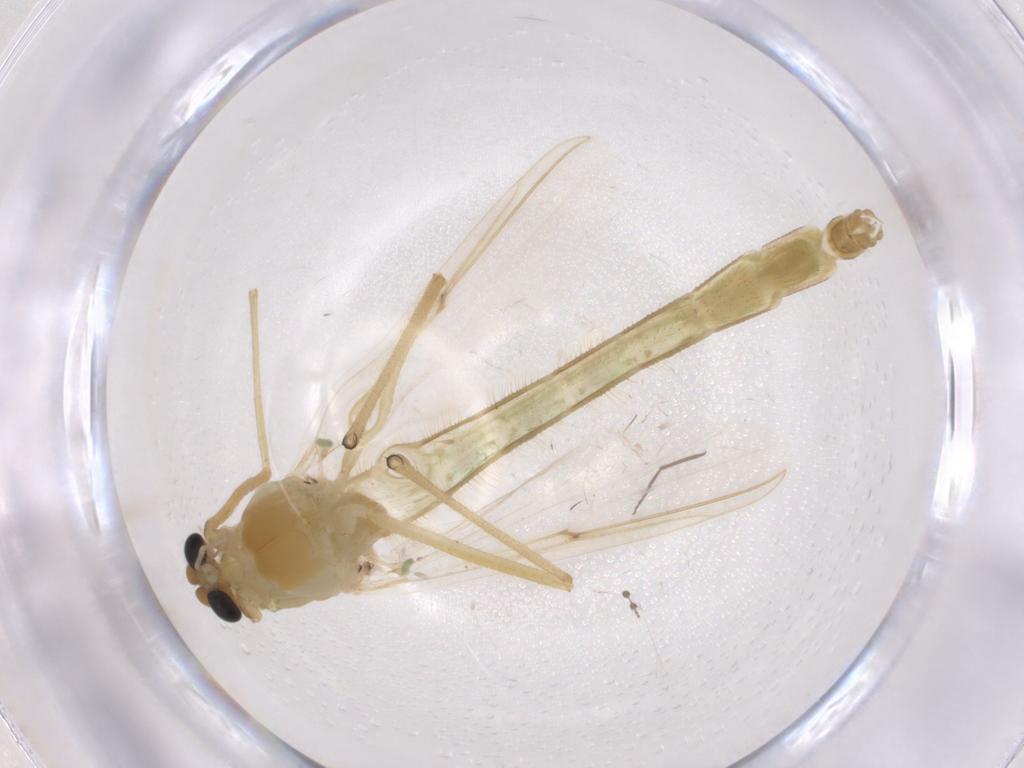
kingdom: Animalia
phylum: Arthropoda
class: Insecta
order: Diptera
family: Chironomidae
